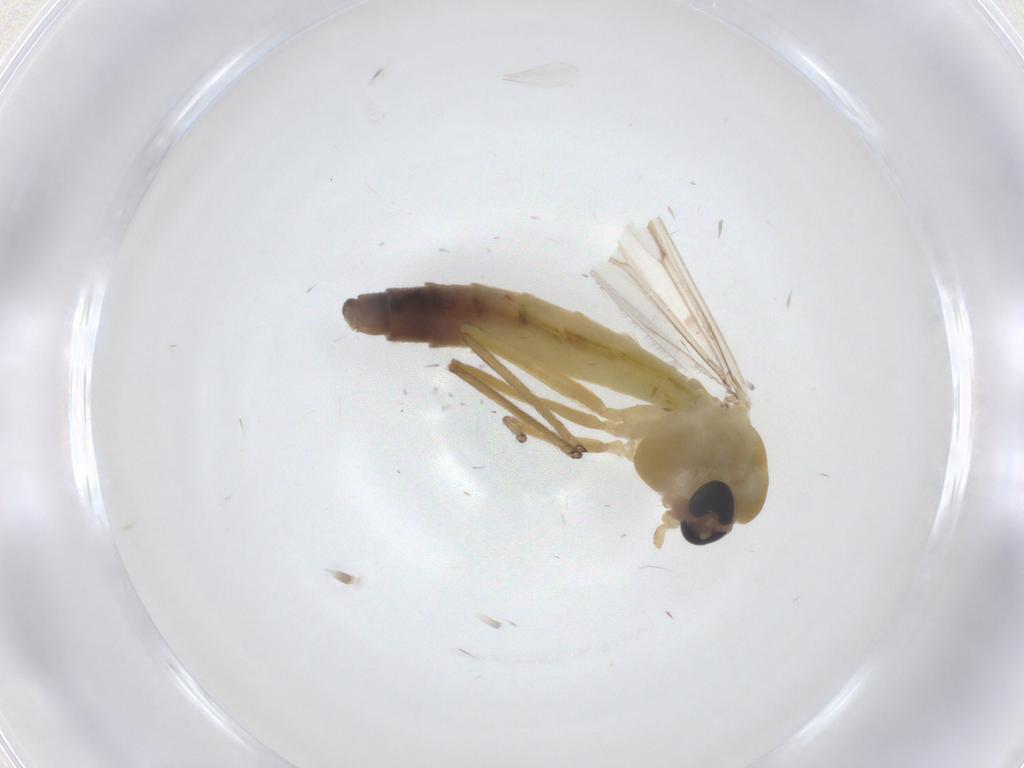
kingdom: Animalia
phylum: Arthropoda
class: Insecta
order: Diptera
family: Chironomidae
